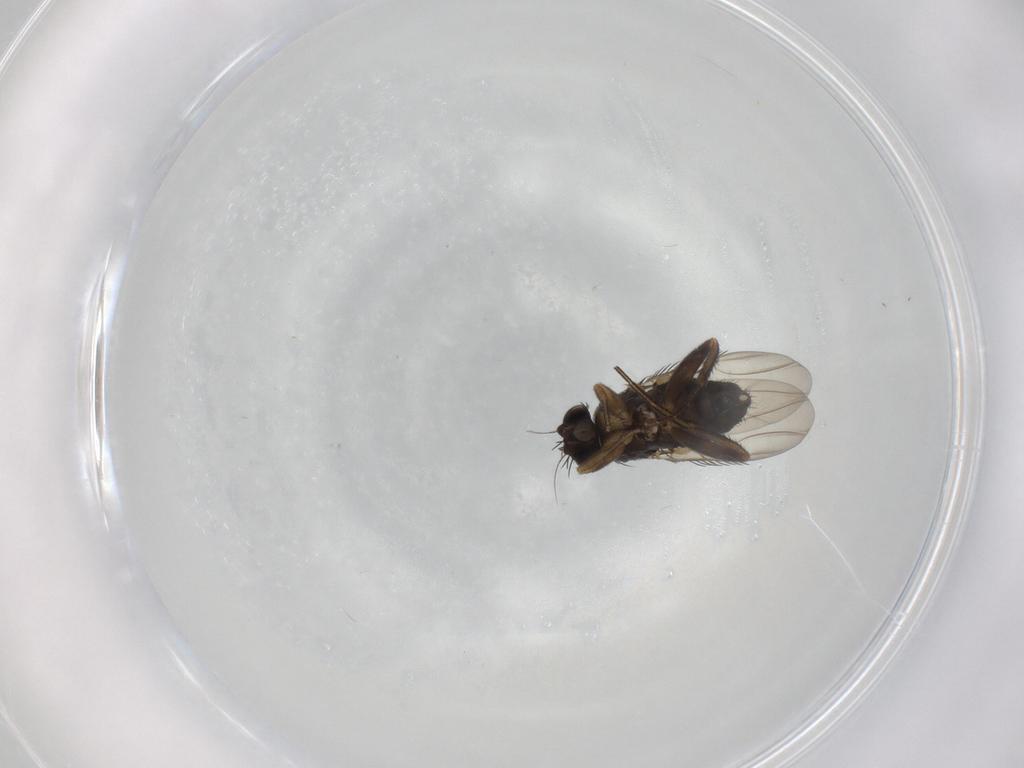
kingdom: Animalia
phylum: Arthropoda
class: Insecta
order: Diptera
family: Phoridae
